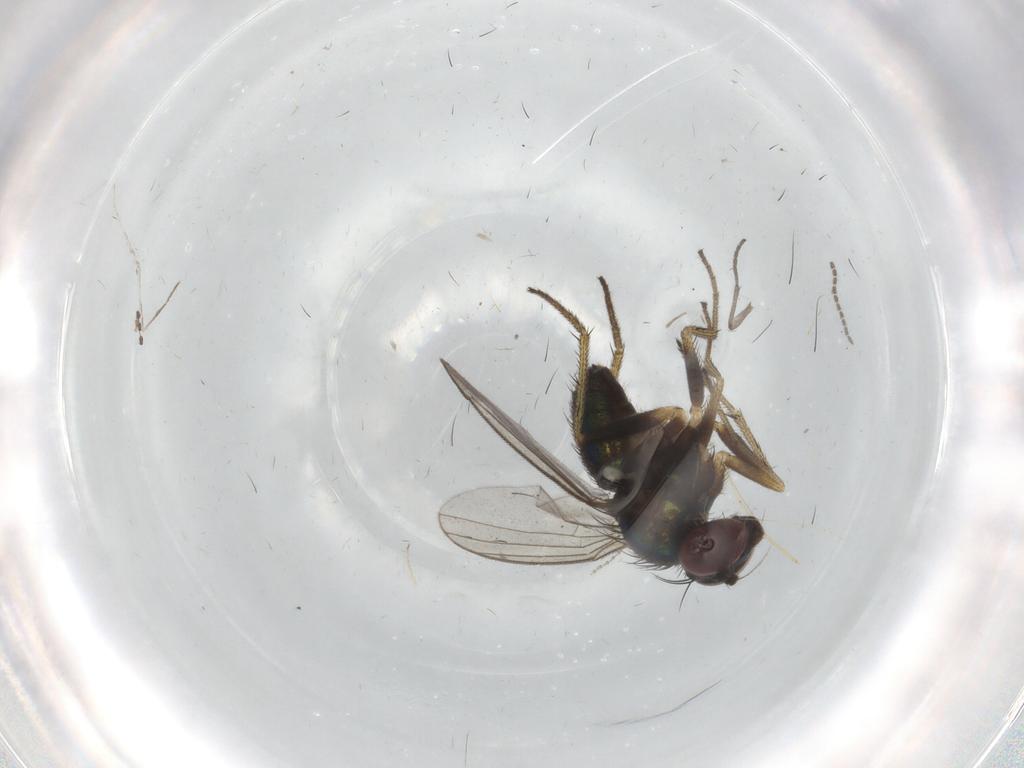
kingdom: Animalia
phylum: Arthropoda
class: Insecta
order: Diptera
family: Sciaridae
